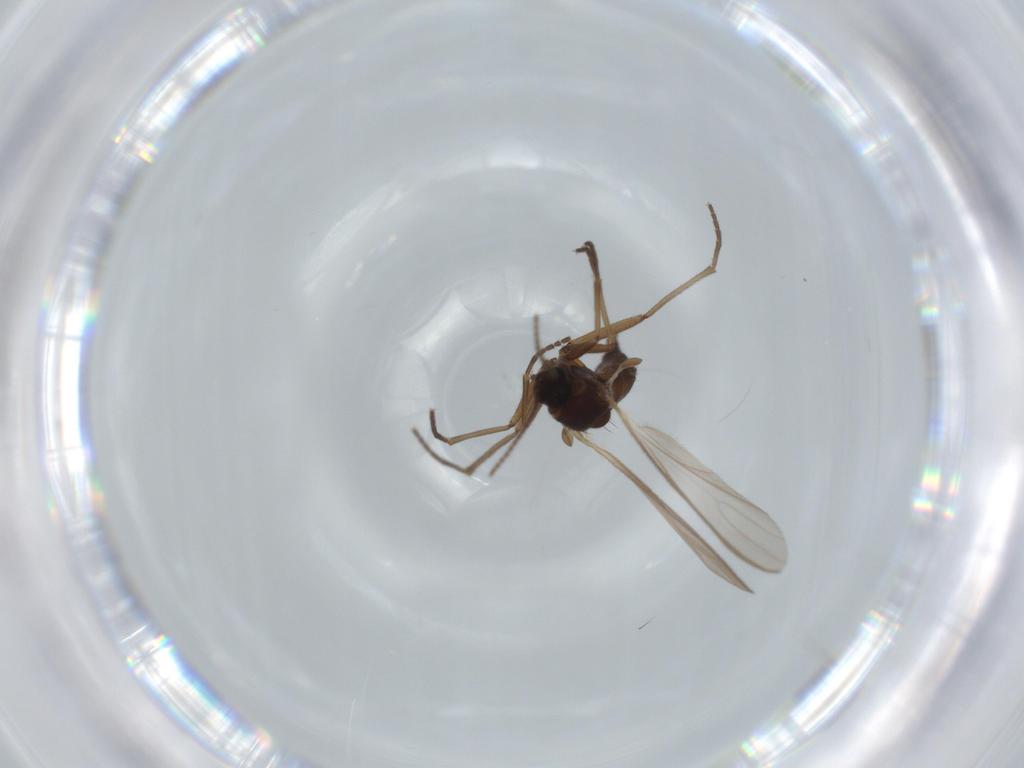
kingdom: Animalia
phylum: Arthropoda
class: Insecta
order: Diptera
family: Sciaridae
